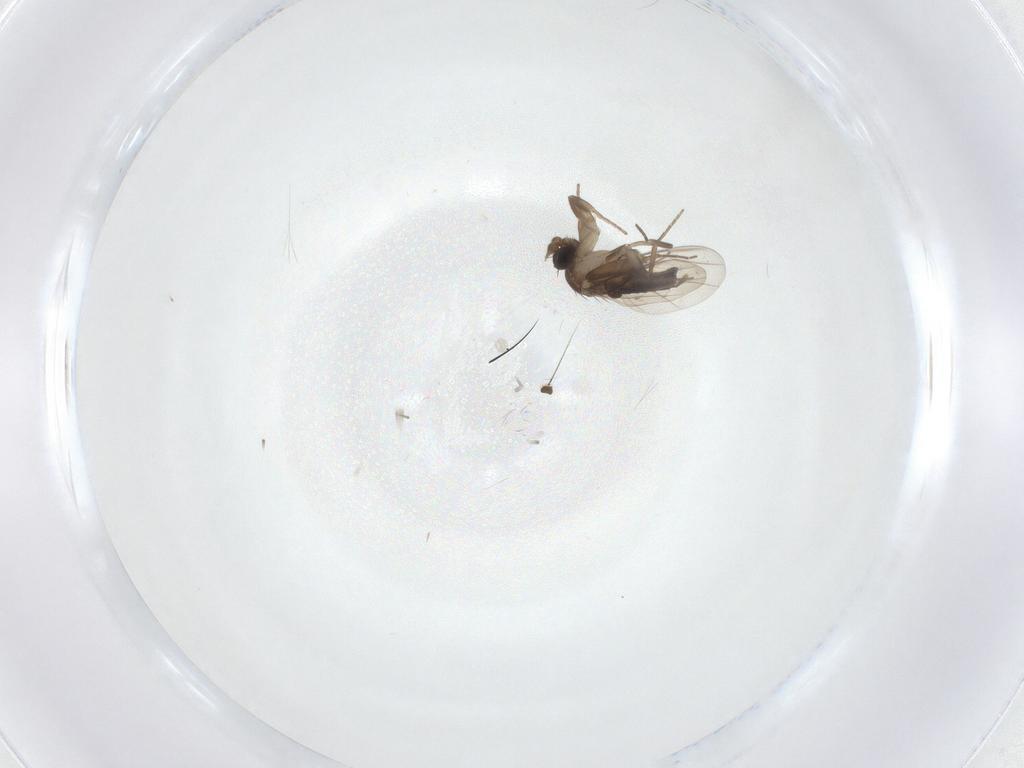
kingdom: Animalia
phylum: Arthropoda
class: Insecta
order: Diptera
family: Phoridae
